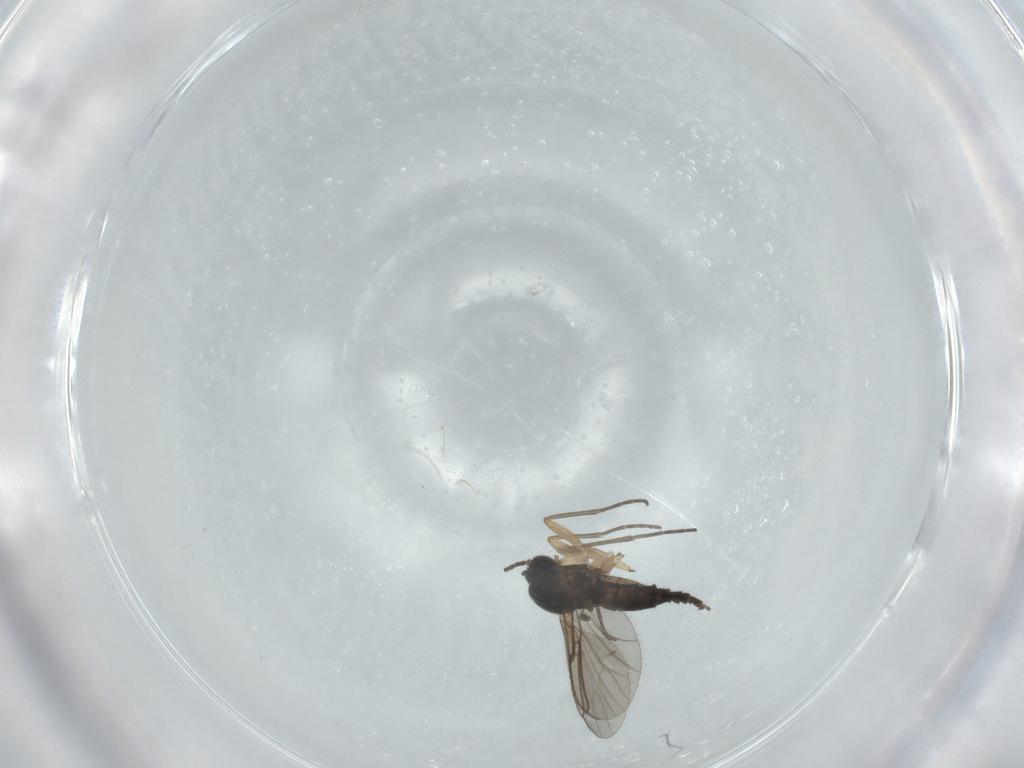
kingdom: Animalia
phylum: Arthropoda
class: Insecta
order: Diptera
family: Sciaridae
